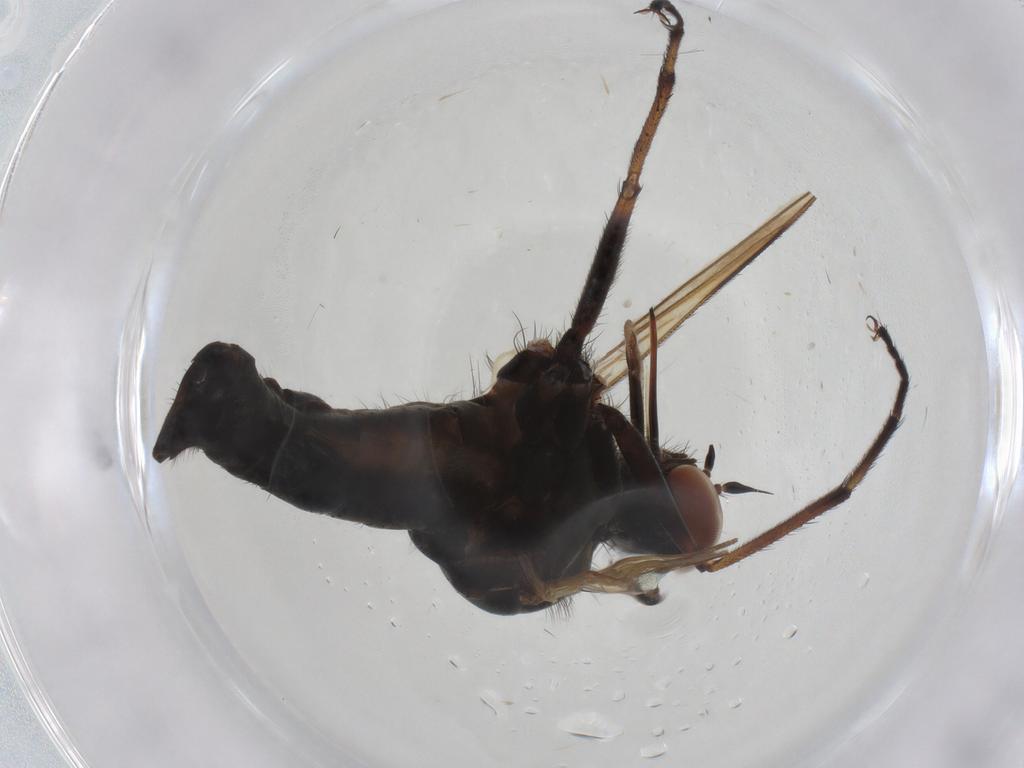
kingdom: Animalia
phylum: Arthropoda
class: Insecta
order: Diptera
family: Empididae
